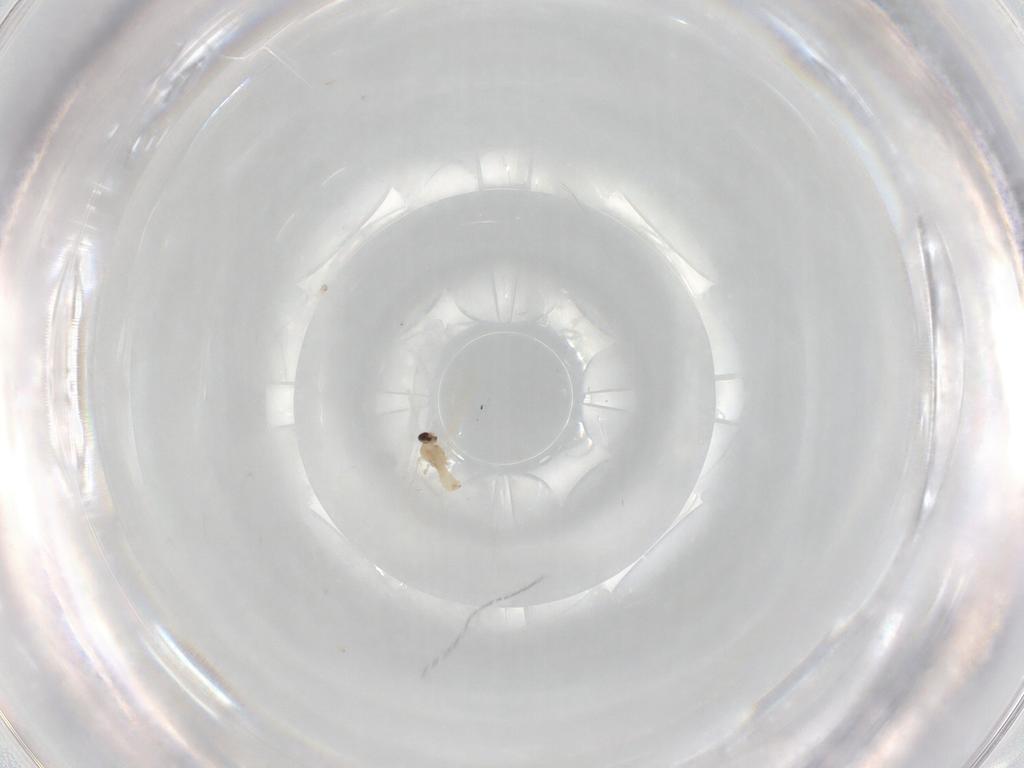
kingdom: Animalia
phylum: Arthropoda
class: Insecta
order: Diptera
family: Cecidomyiidae
